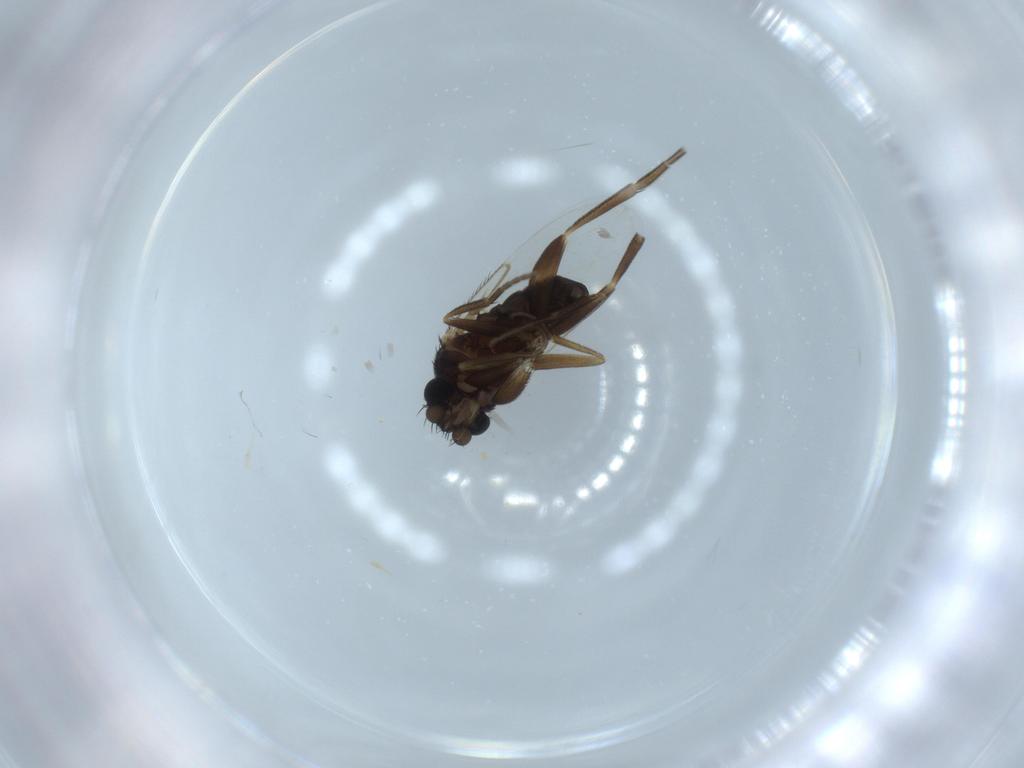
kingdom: Animalia
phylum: Arthropoda
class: Insecta
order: Diptera
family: Phoridae
